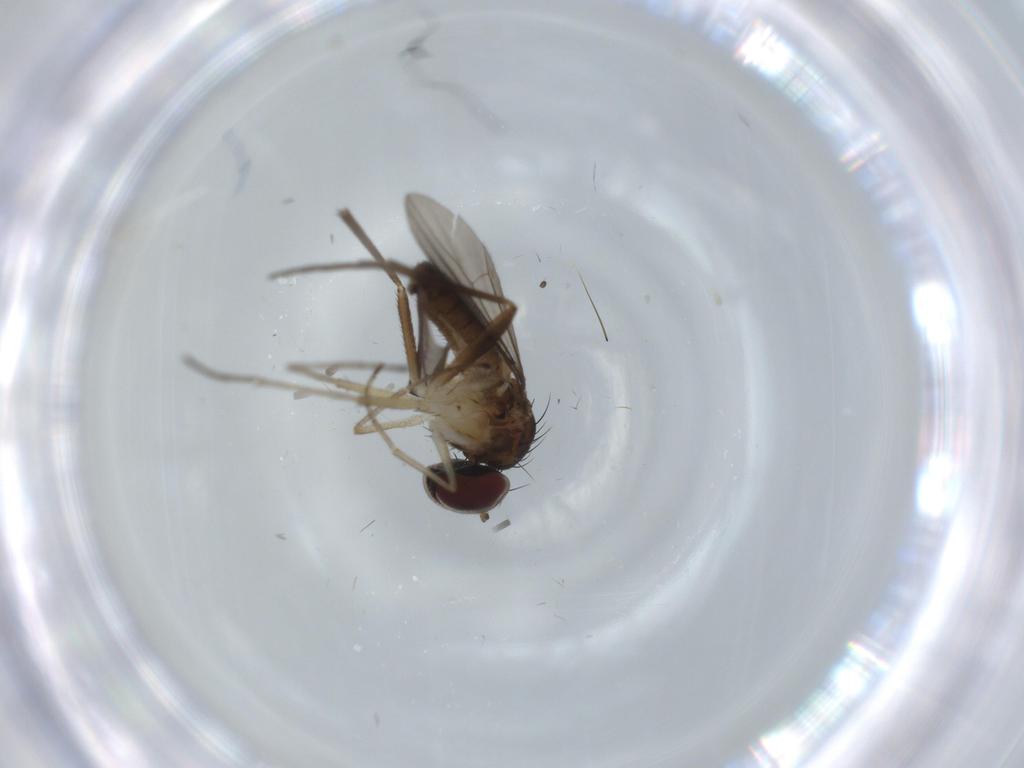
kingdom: Animalia
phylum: Arthropoda
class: Insecta
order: Diptera
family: Dolichopodidae
